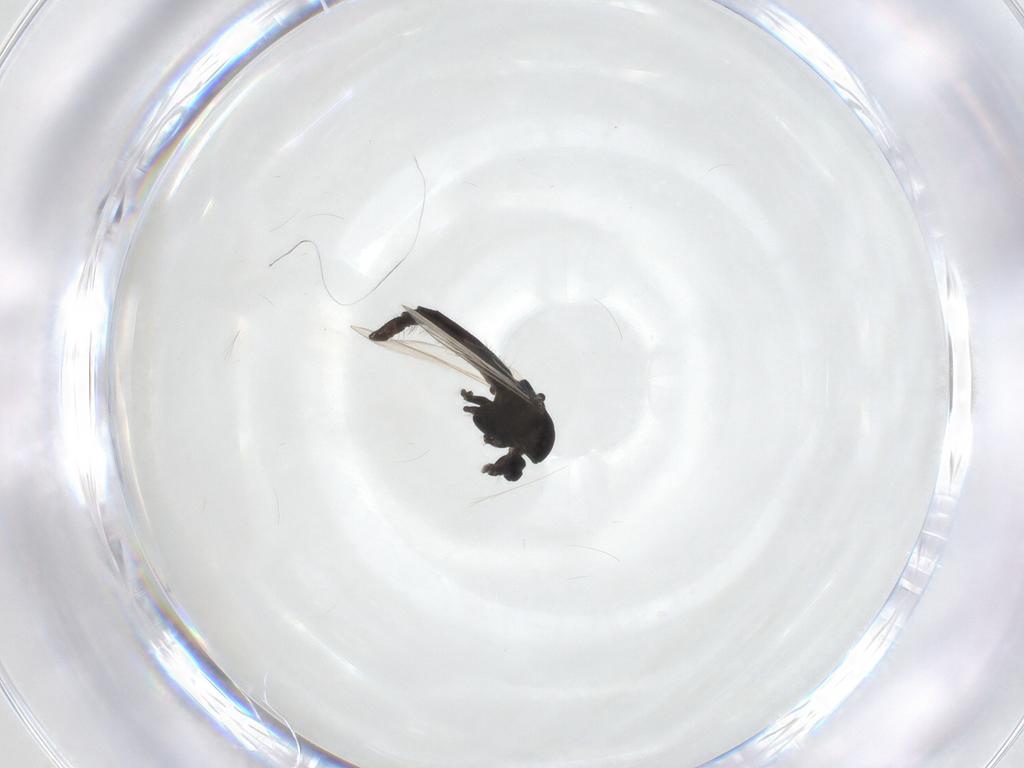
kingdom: Animalia
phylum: Arthropoda
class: Insecta
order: Diptera
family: Chironomidae
